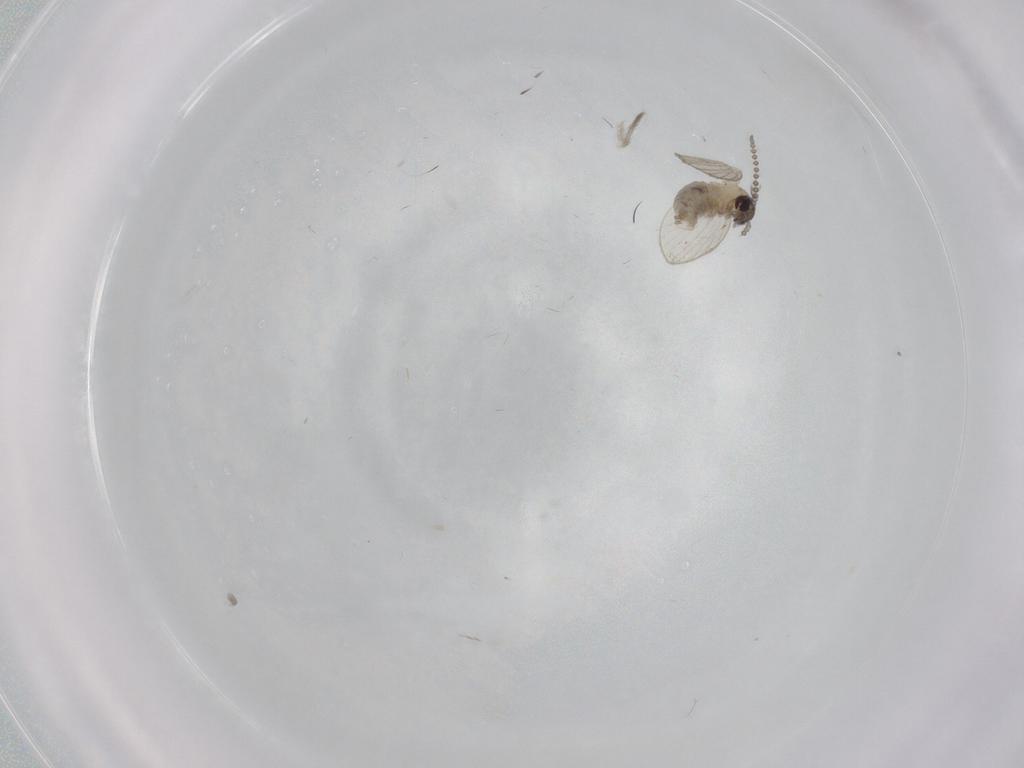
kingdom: Animalia
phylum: Arthropoda
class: Insecta
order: Diptera
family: Psychodidae
